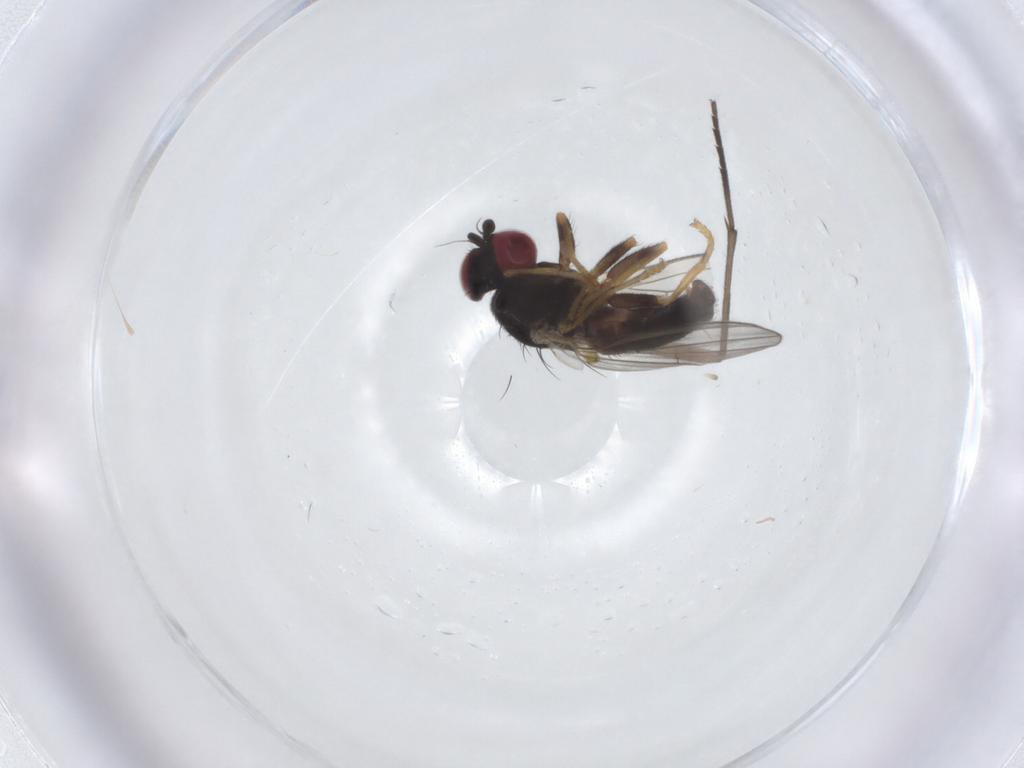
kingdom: Animalia
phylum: Arthropoda
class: Insecta
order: Diptera
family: Chamaemyiidae
